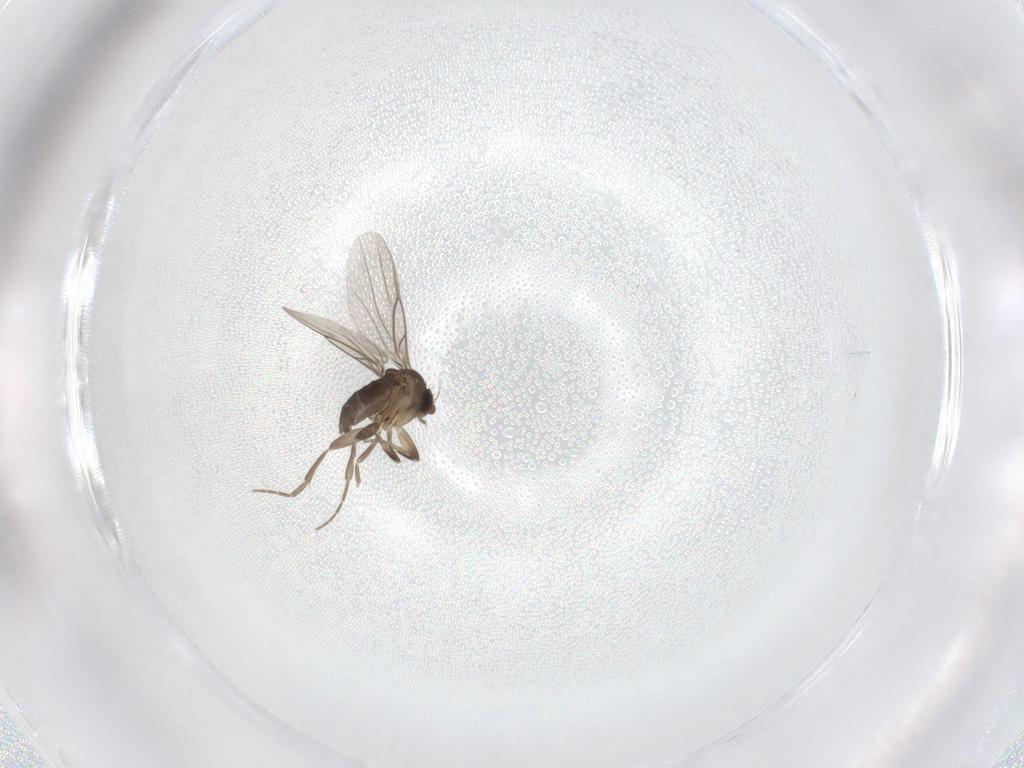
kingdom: Animalia
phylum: Arthropoda
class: Insecta
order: Diptera
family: Phoridae
